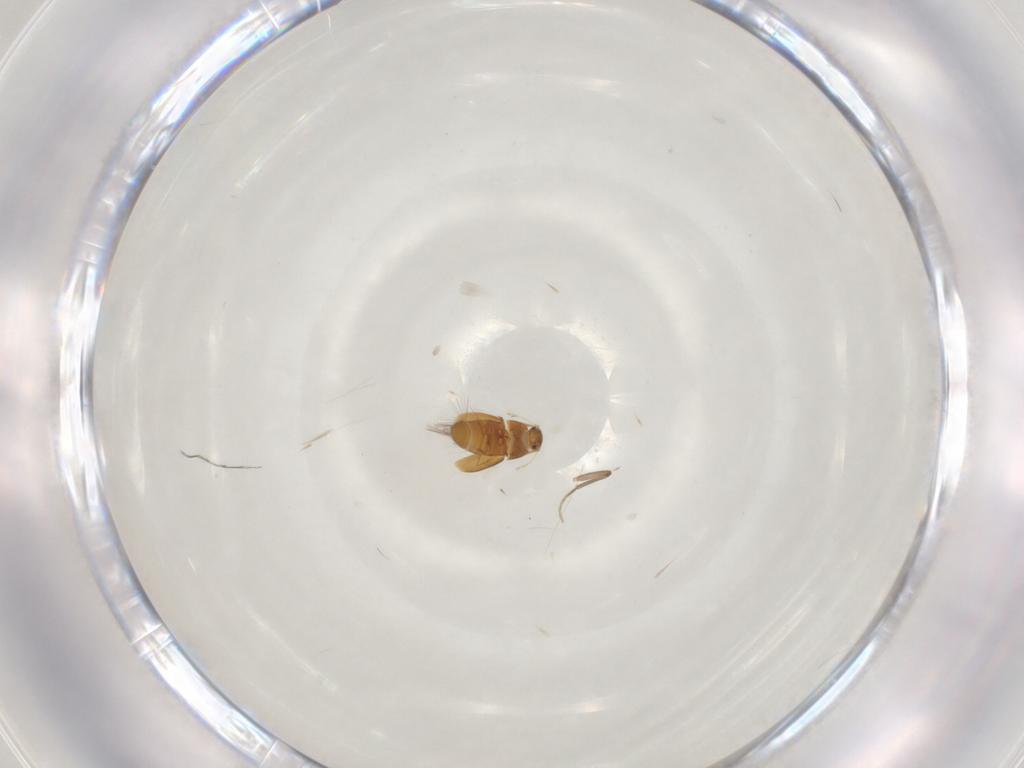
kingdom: Animalia
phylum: Arthropoda
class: Insecta
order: Coleoptera
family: Ptiliidae
